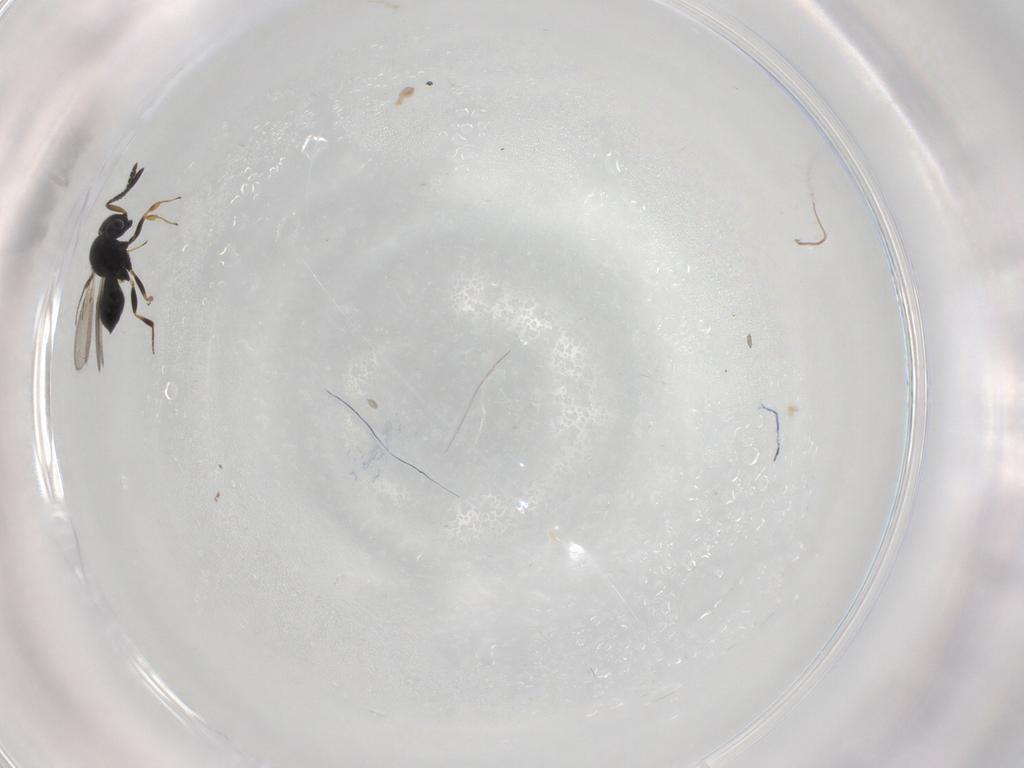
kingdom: Animalia
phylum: Arthropoda
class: Insecta
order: Hymenoptera
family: Scelionidae
